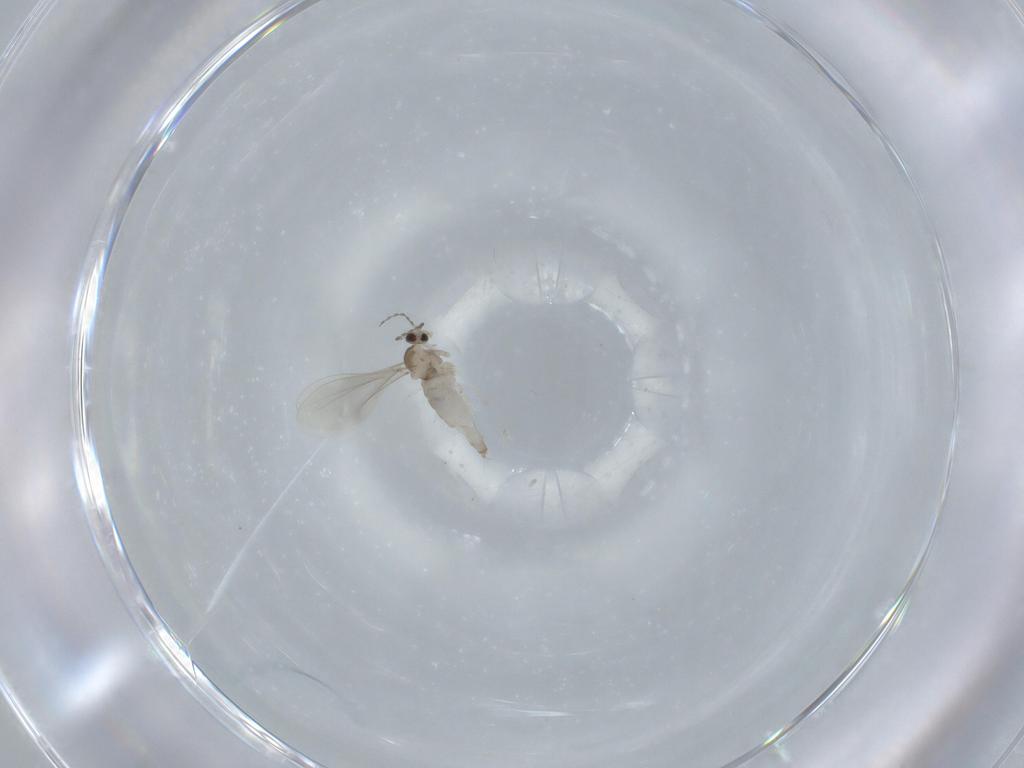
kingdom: Animalia
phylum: Arthropoda
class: Insecta
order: Diptera
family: Cecidomyiidae
